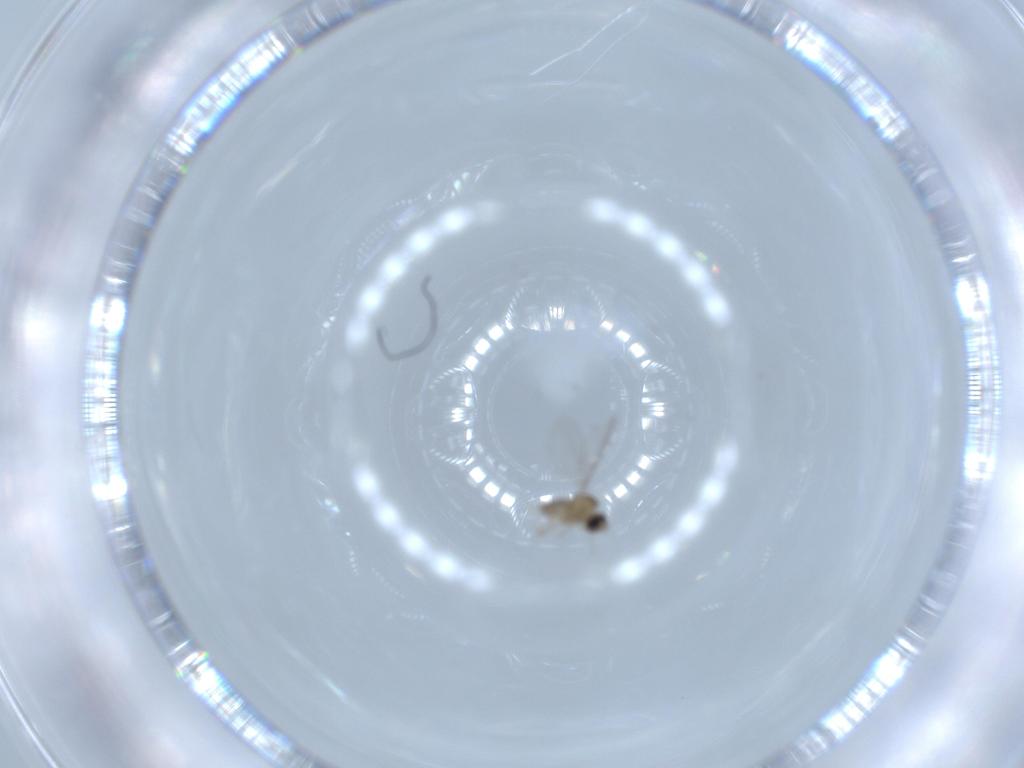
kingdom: Animalia
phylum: Arthropoda
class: Insecta
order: Diptera
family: Cecidomyiidae
